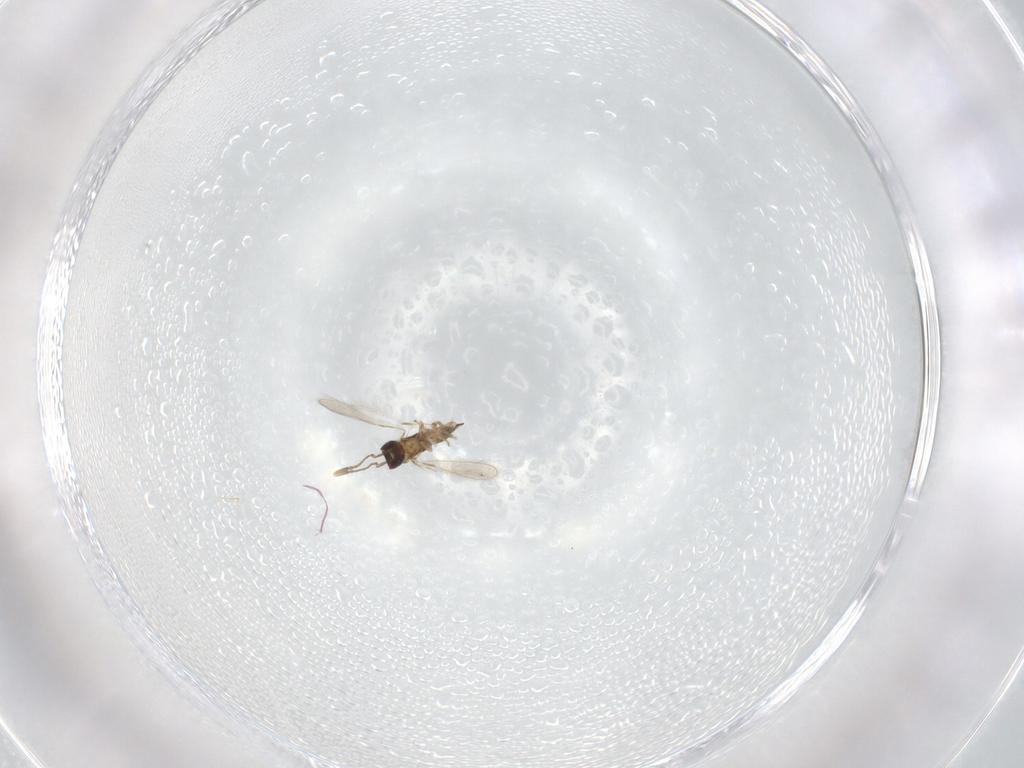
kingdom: Animalia
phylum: Arthropoda
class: Insecta
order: Hymenoptera
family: Mymaridae
